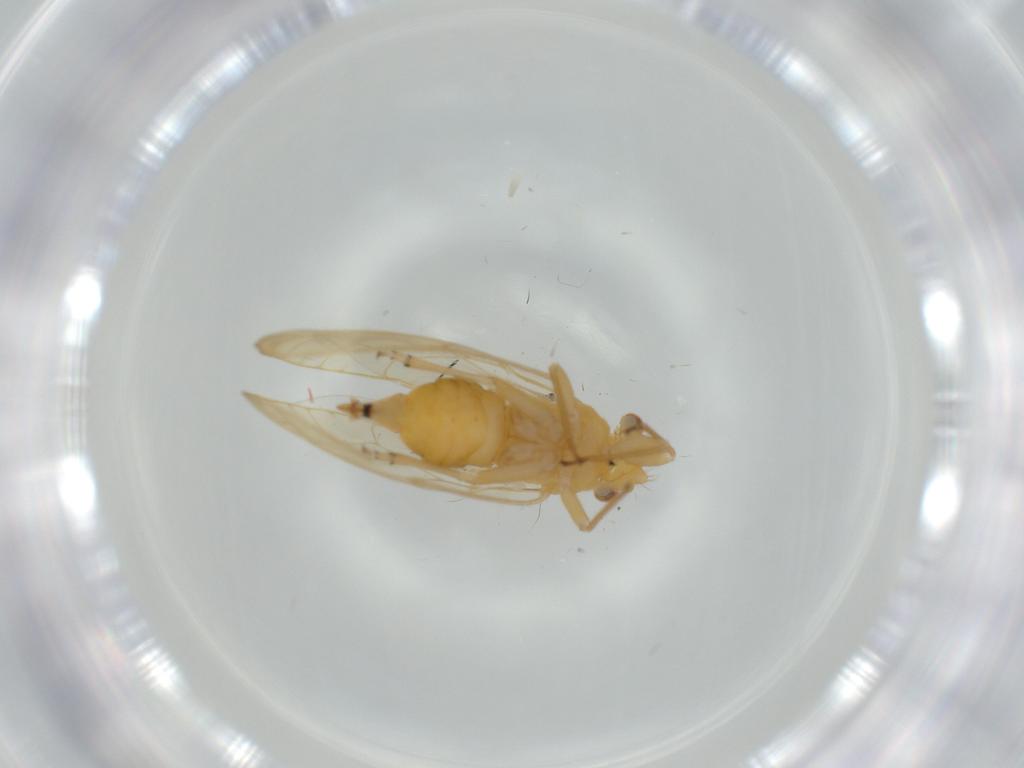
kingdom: Animalia
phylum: Arthropoda
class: Insecta
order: Hemiptera
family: Psyllidae
